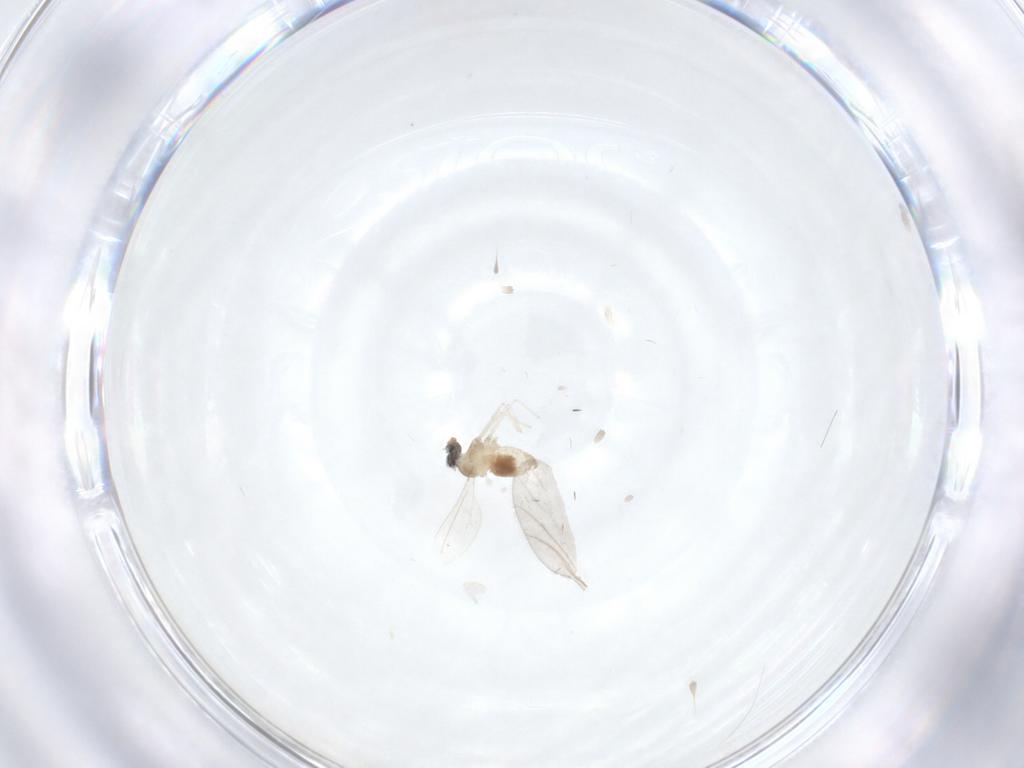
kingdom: Animalia
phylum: Arthropoda
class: Insecta
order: Diptera
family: Cecidomyiidae
